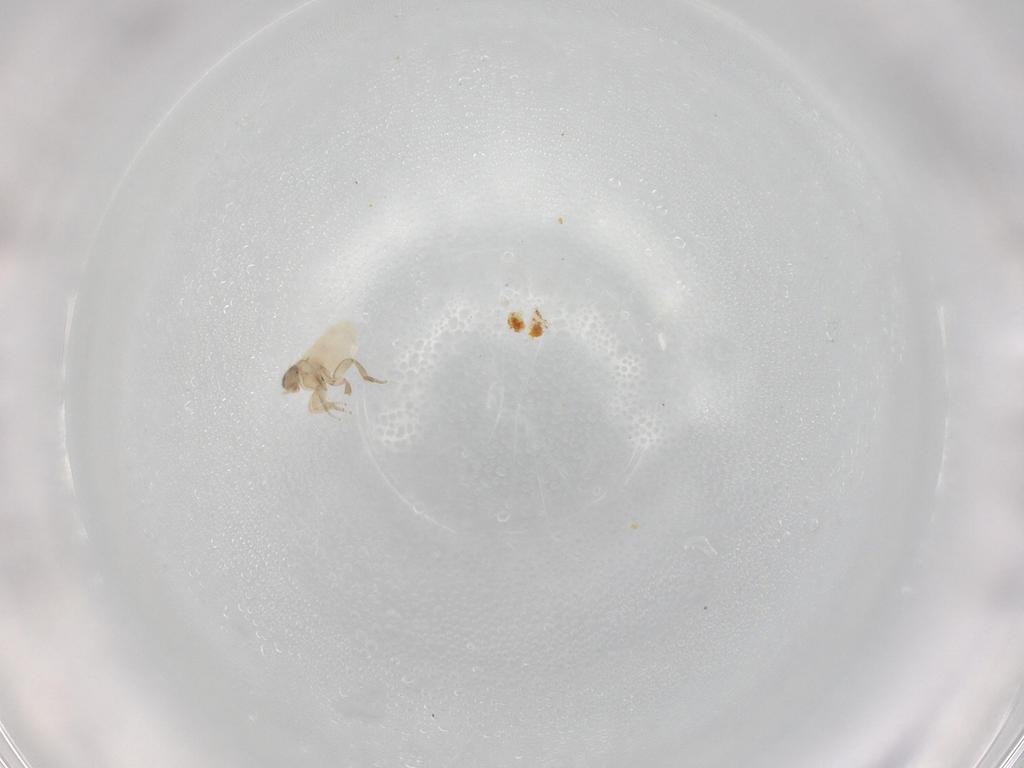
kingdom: Animalia
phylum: Arthropoda
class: Insecta
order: Diptera
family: Phoridae
